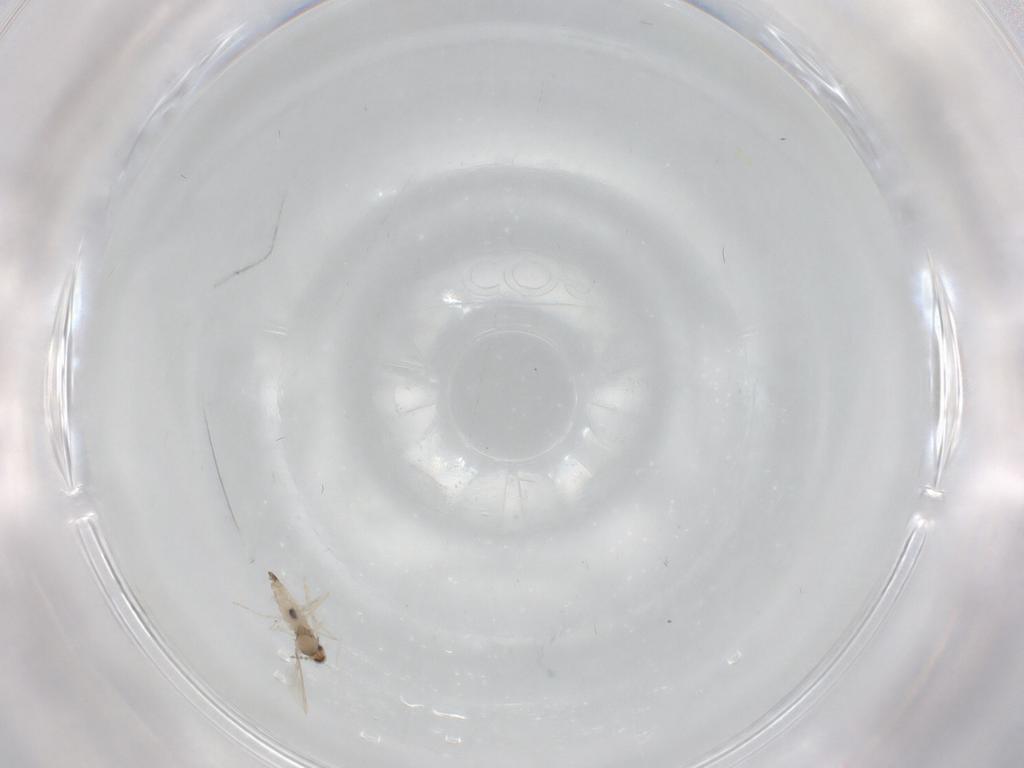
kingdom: Animalia
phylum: Arthropoda
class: Insecta
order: Diptera
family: Cecidomyiidae
